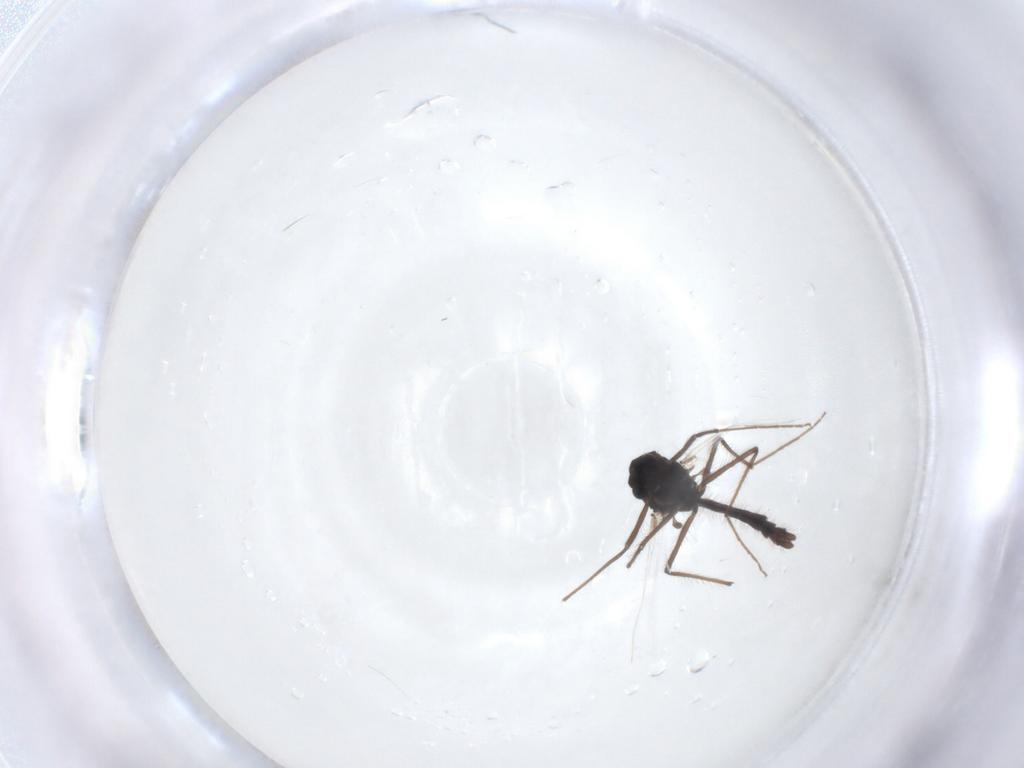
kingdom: Animalia
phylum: Arthropoda
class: Insecta
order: Diptera
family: Chironomidae
